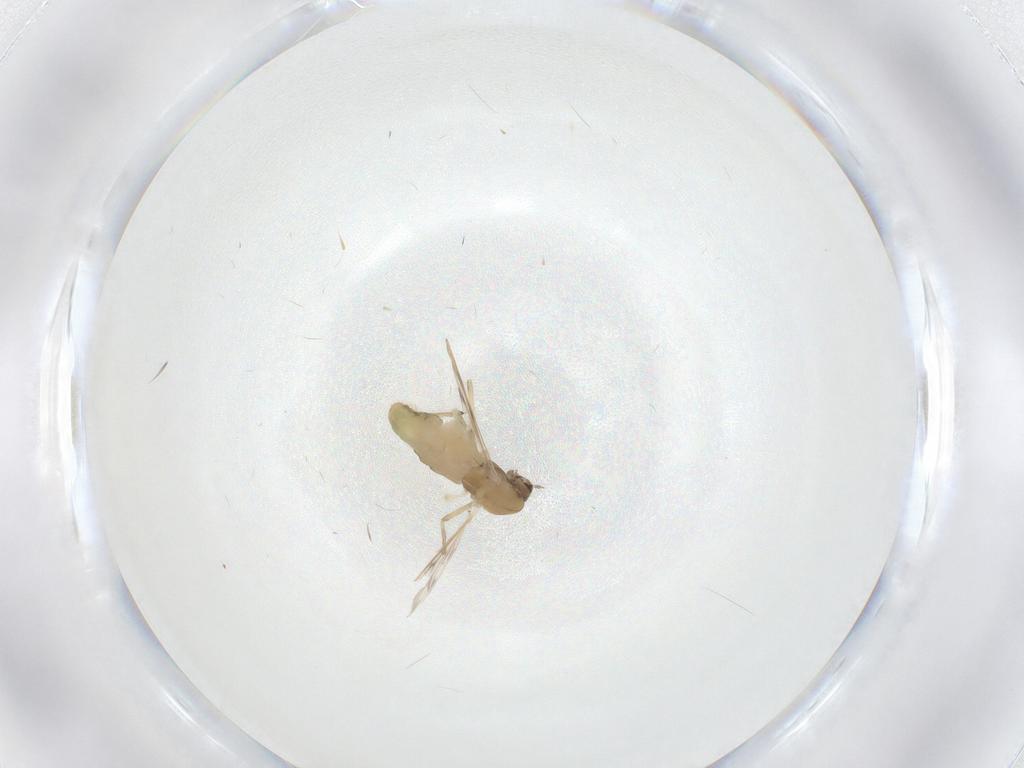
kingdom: Animalia
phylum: Arthropoda
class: Insecta
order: Diptera
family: Chironomidae
